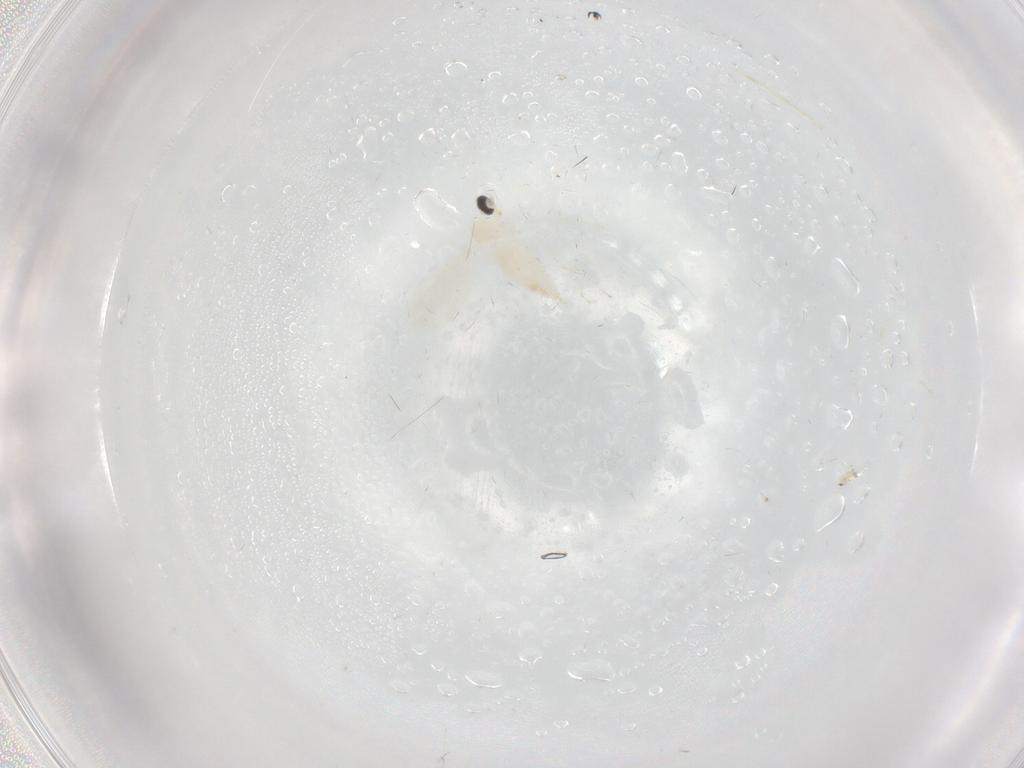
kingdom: Animalia
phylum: Arthropoda
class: Insecta
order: Diptera
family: Cecidomyiidae
